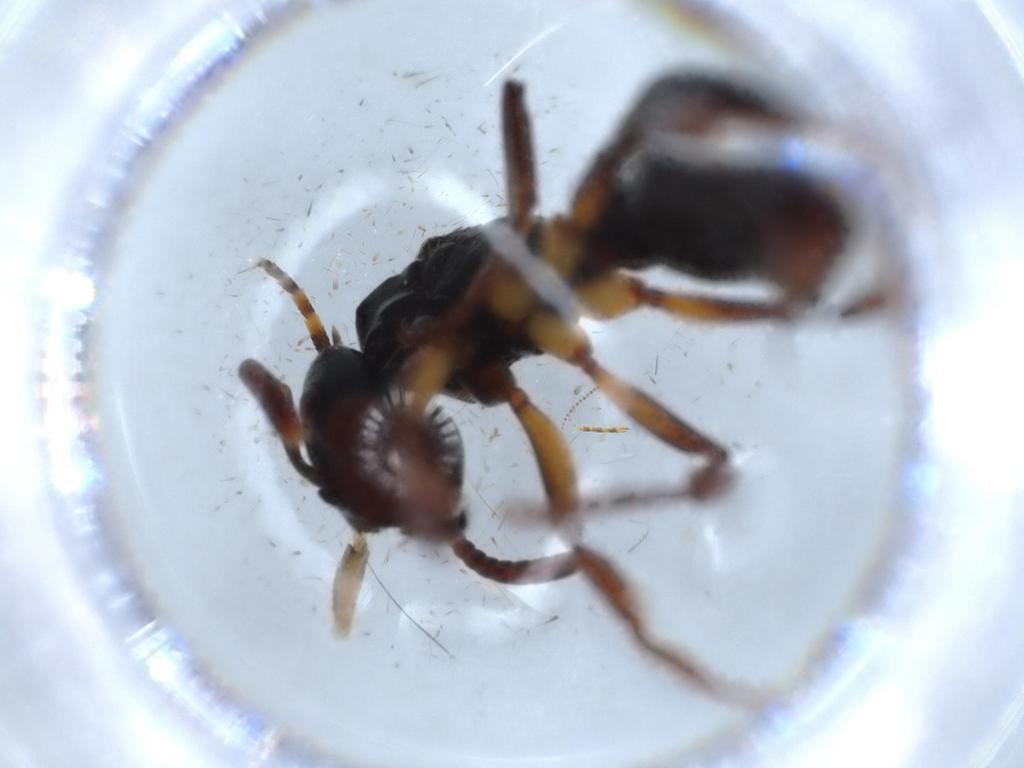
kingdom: Animalia
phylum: Arthropoda
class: Insecta
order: Hymenoptera
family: Formicidae
